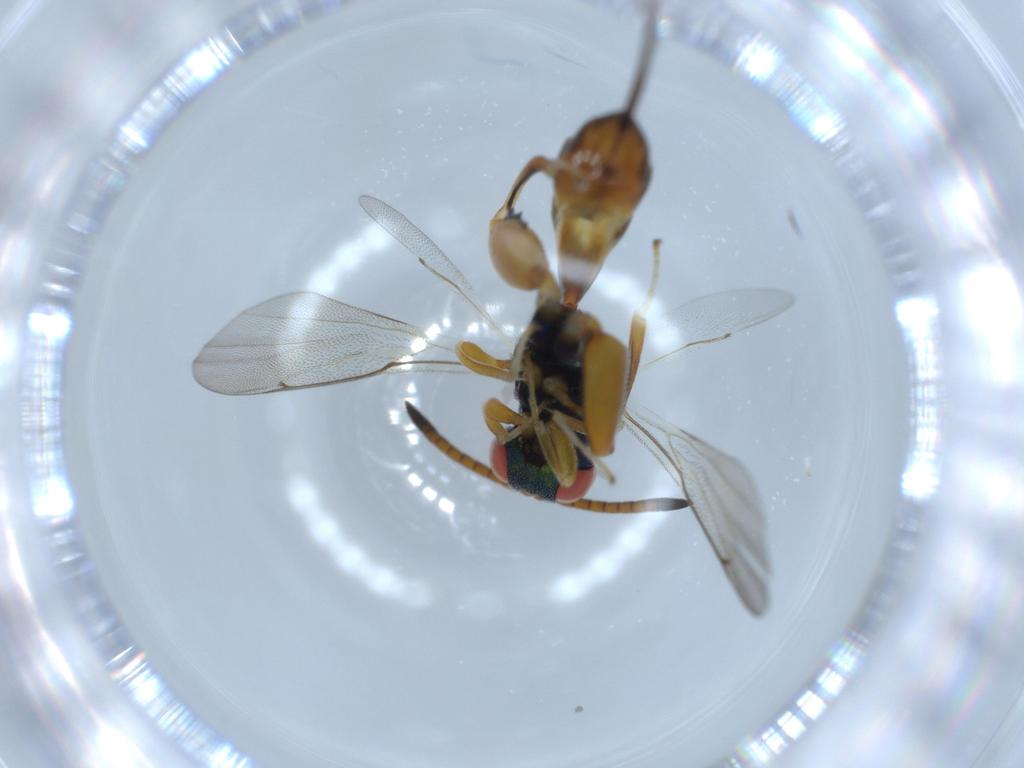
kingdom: Animalia
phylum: Arthropoda
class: Insecta
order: Hymenoptera
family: Torymidae
